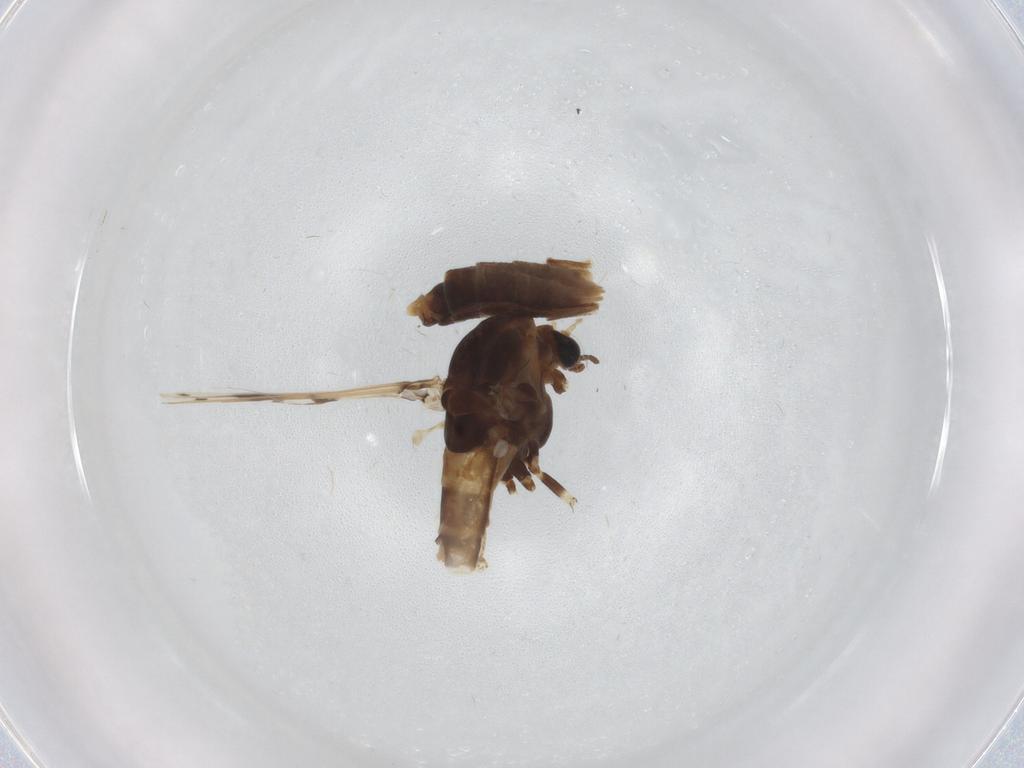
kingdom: Animalia
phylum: Arthropoda
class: Insecta
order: Diptera
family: Chironomidae
